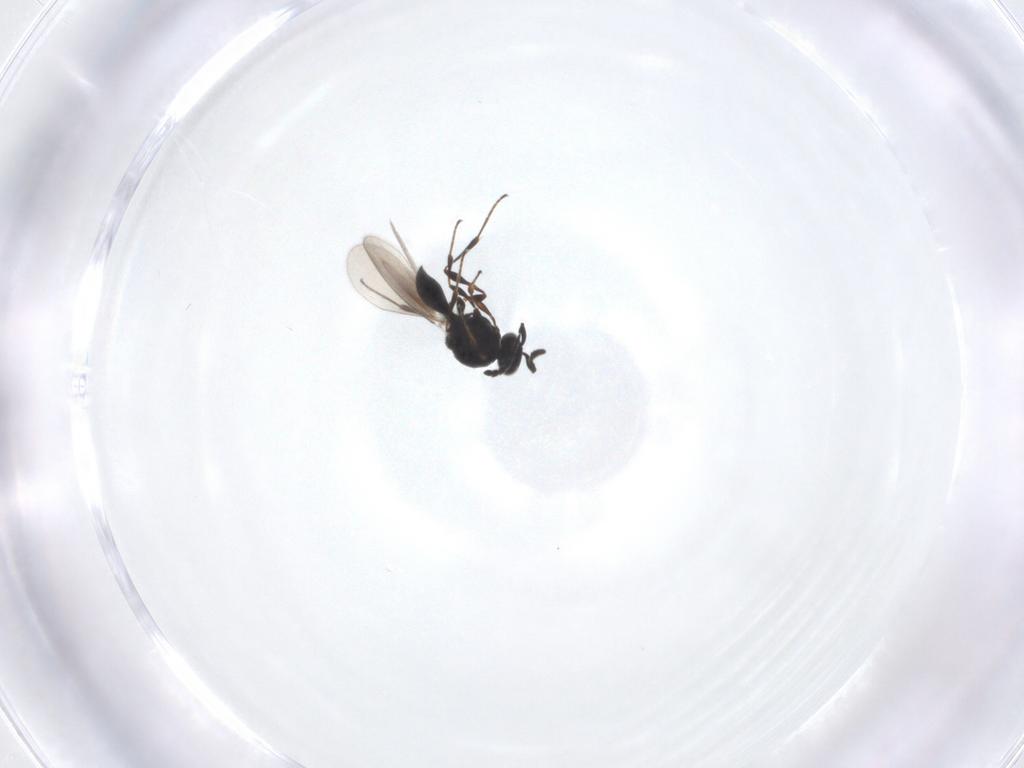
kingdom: Animalia
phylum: Arthropoda
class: Insecta
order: Hymenoptera
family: Platygastridae
